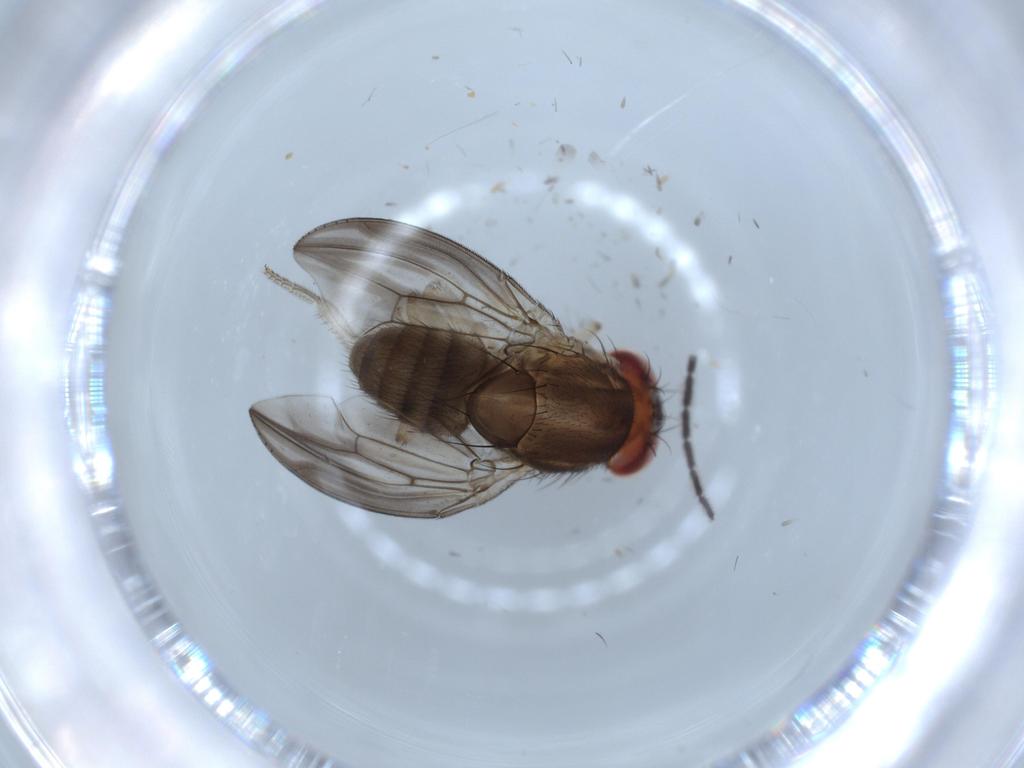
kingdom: Animalia
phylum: Arthropoda
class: Insecta
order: Diptera
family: Drosophilidae
